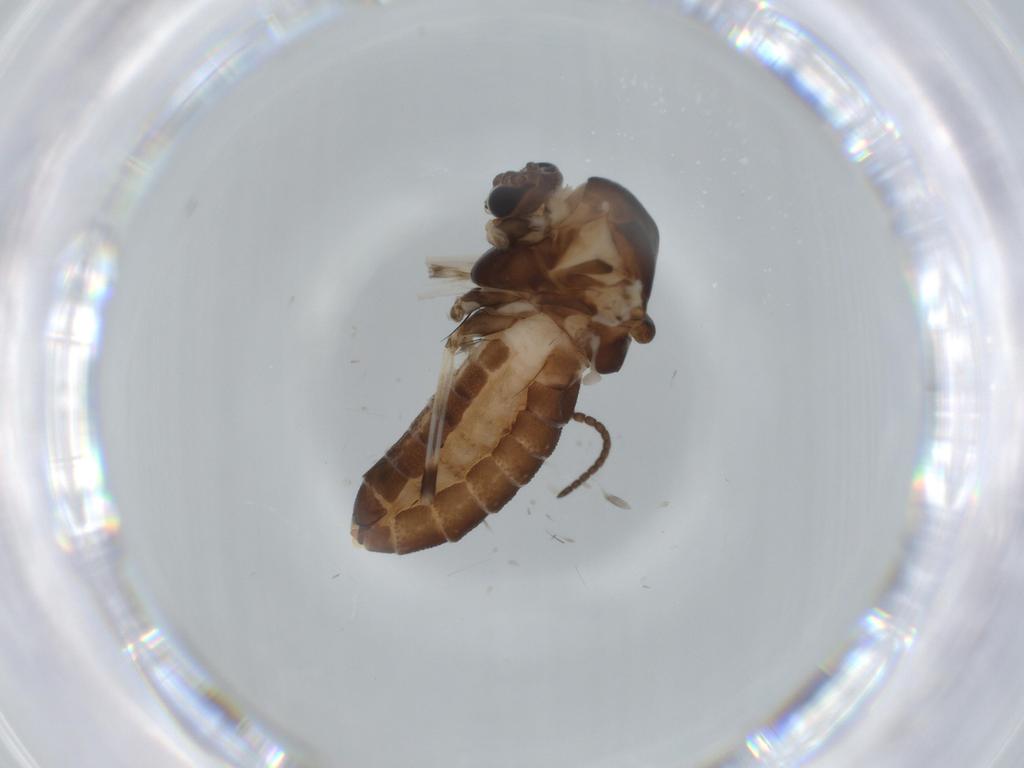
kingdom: Animalia
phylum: Arthropoda
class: Insecta
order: Diptera
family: Sciaridae
